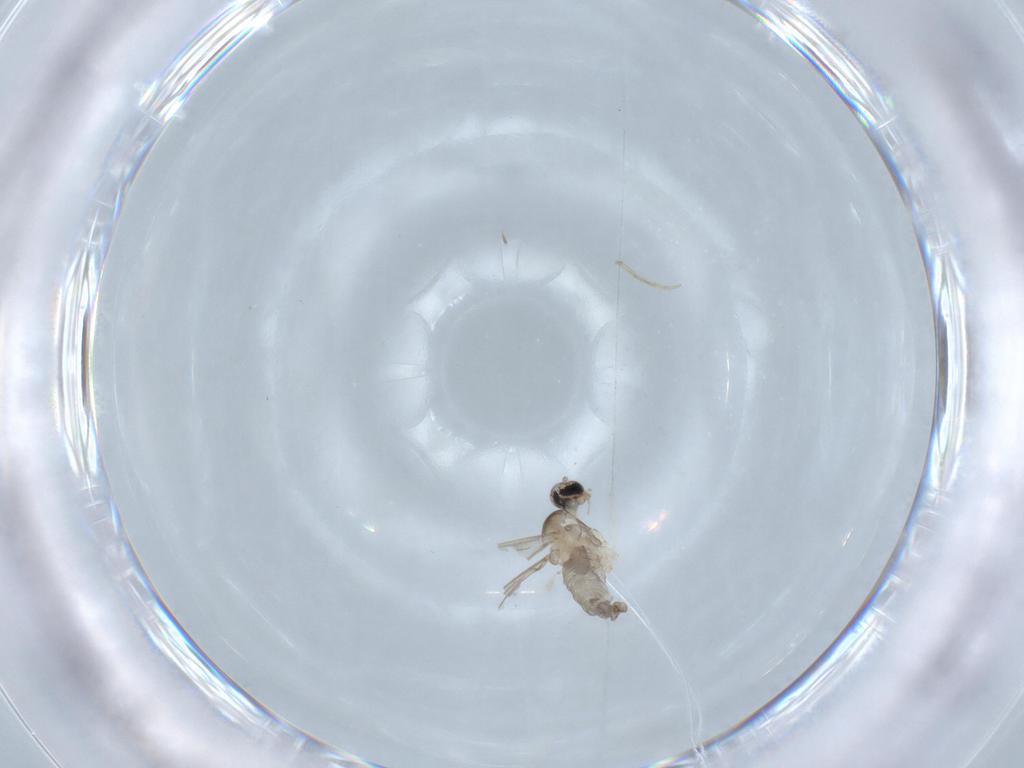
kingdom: Animalia
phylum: Arthropoda
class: Insecta
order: Diptera
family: Cecidomyiidae
